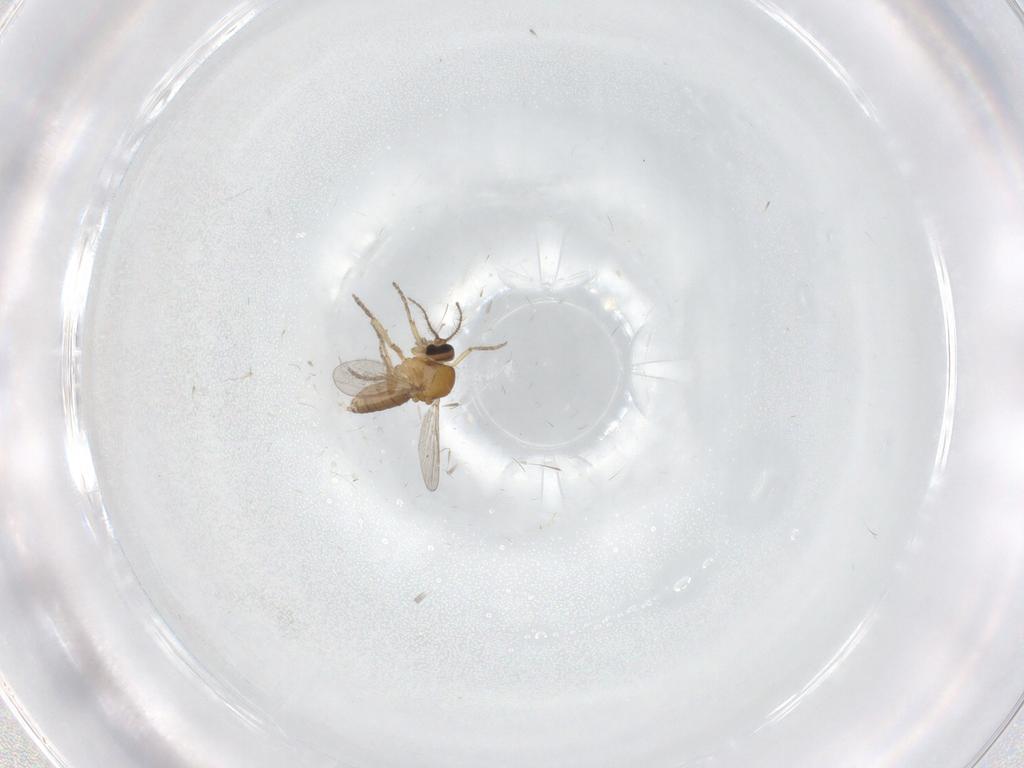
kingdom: Animalia
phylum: Arthropoda
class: Insecta
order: Diptera
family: Ceratopogonidae
